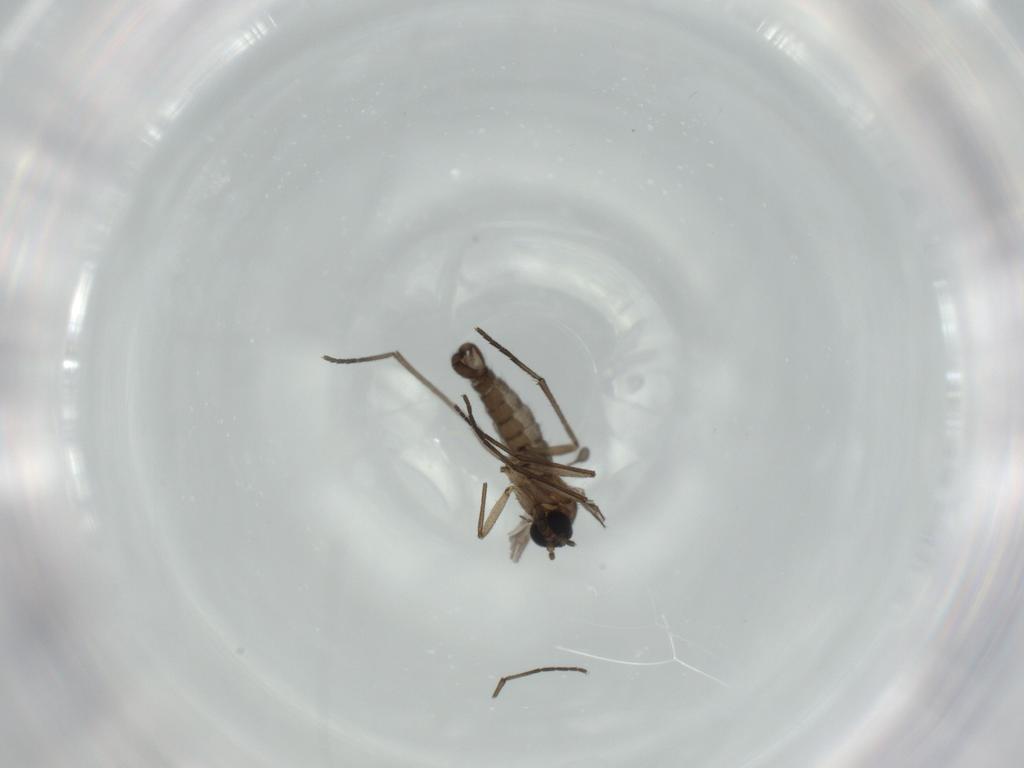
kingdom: Animalia
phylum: Arthropoda
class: Insecta
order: Diptera
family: Sciaridae
